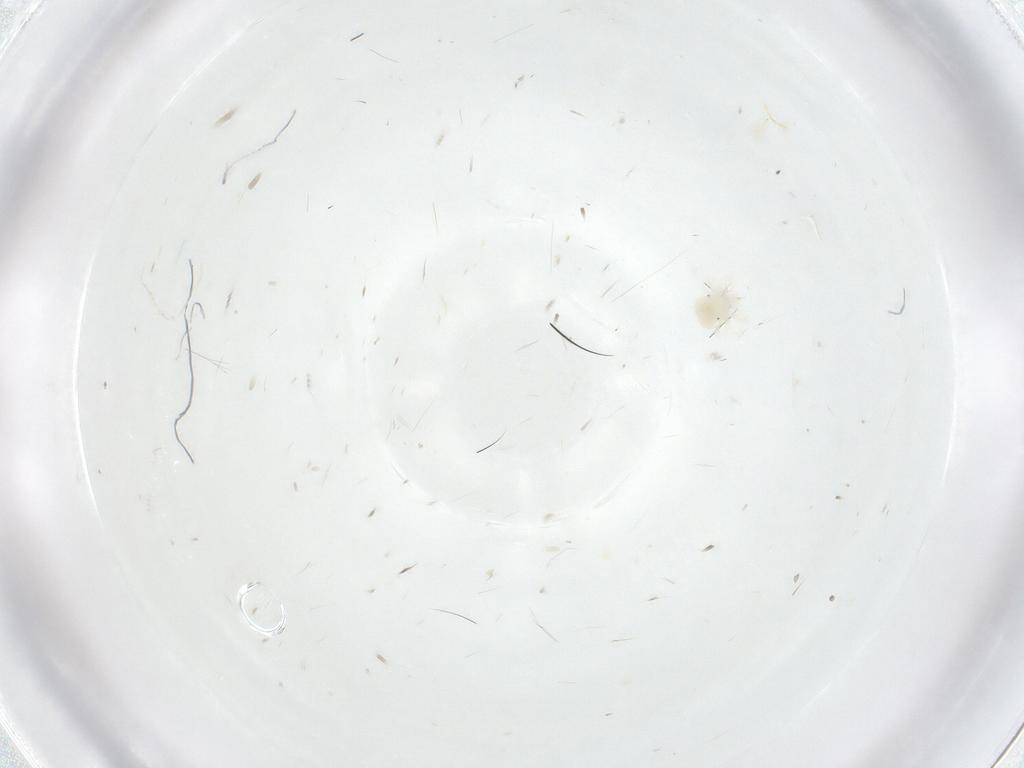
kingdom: Animalia
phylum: Arthropoda
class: Arachnida
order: Trombidiformes
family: Anystidae
